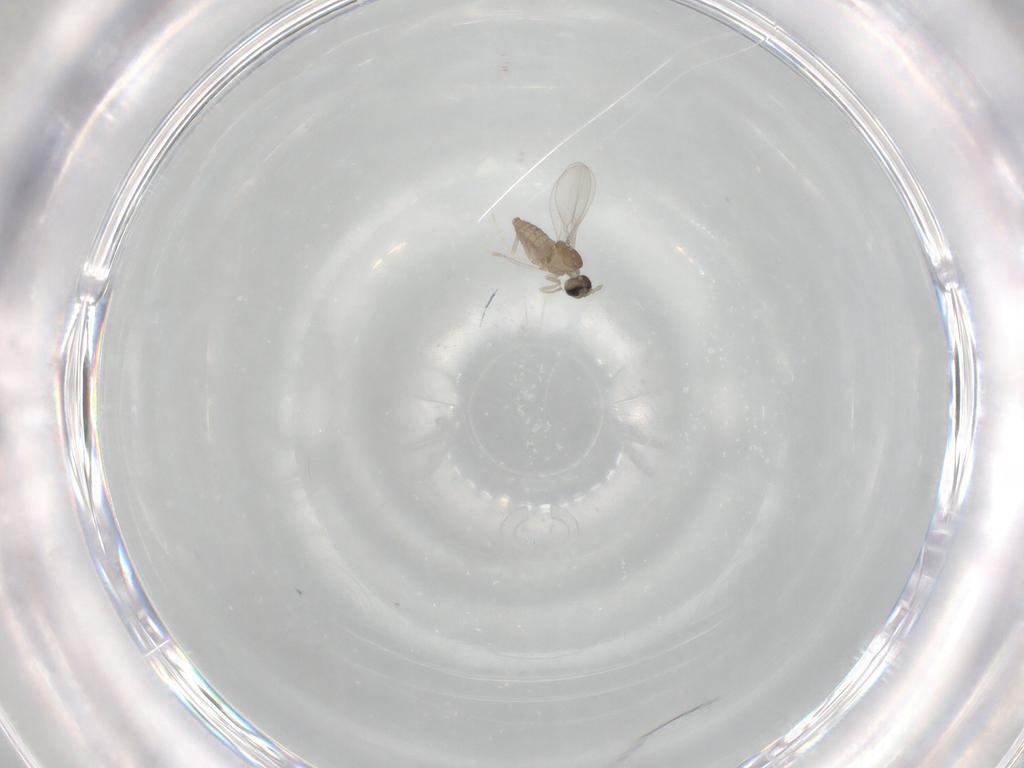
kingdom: Animalia
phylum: Arthropoda
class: Insecta
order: Diptera
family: Cecidomyiidae
